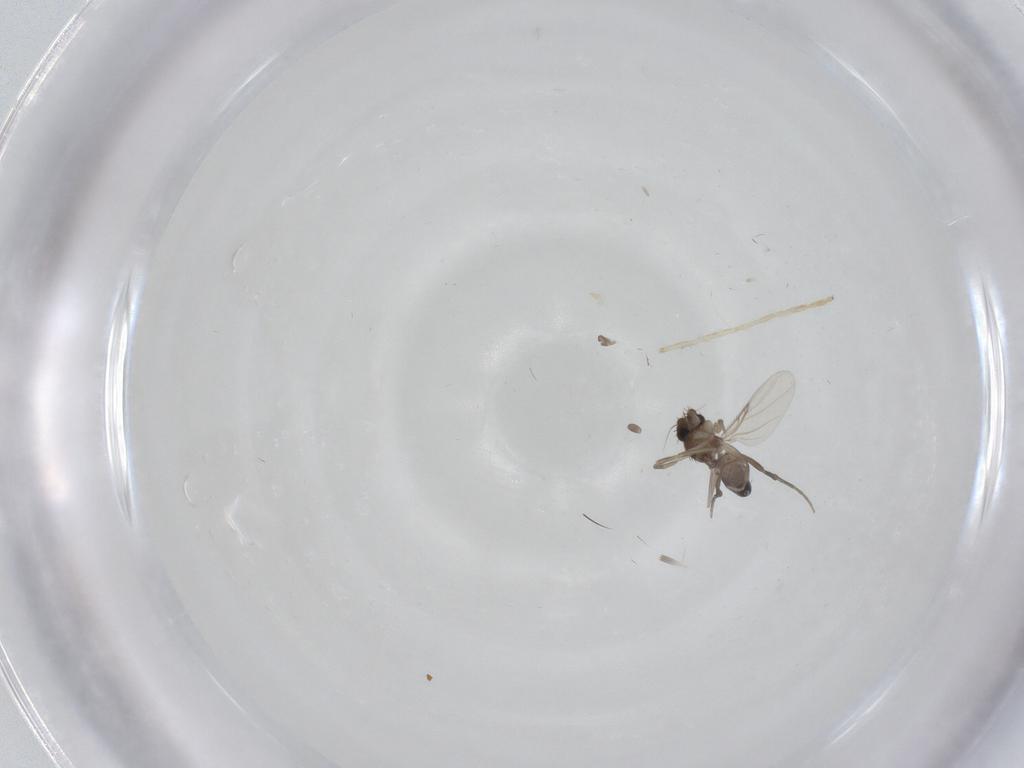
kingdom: Animalia
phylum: Arthropoda
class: Insecta
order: Diptera
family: Phoridae
